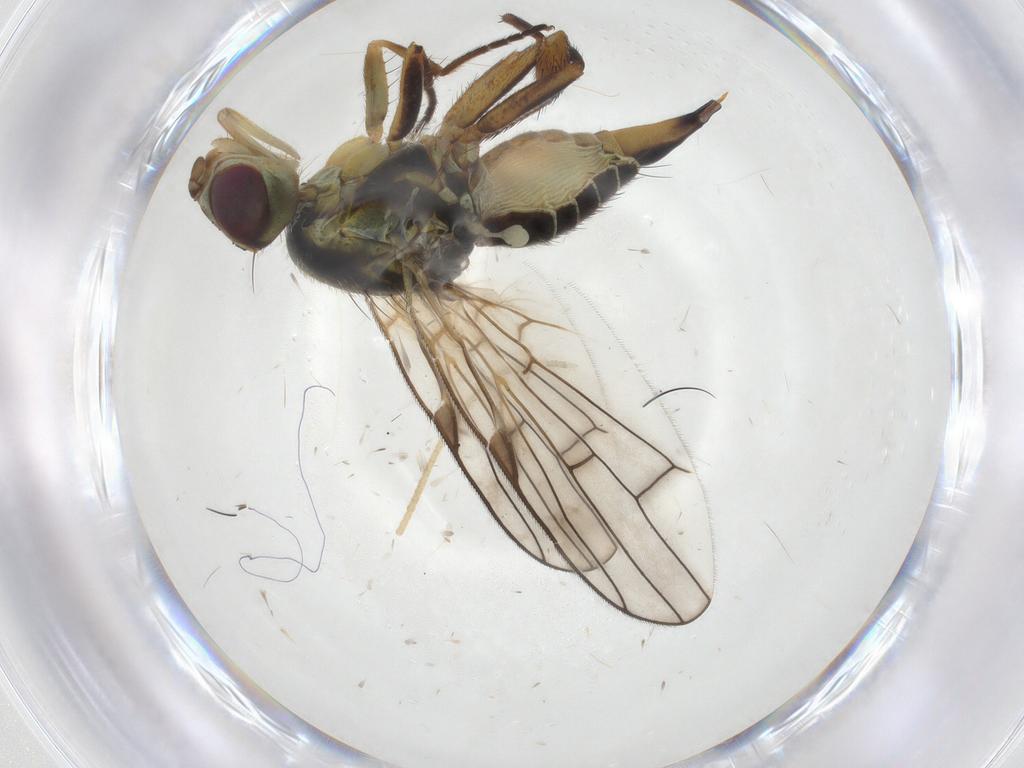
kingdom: Animalia
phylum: Arthropoda
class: Insecta
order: Diptera
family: Tephritidae
